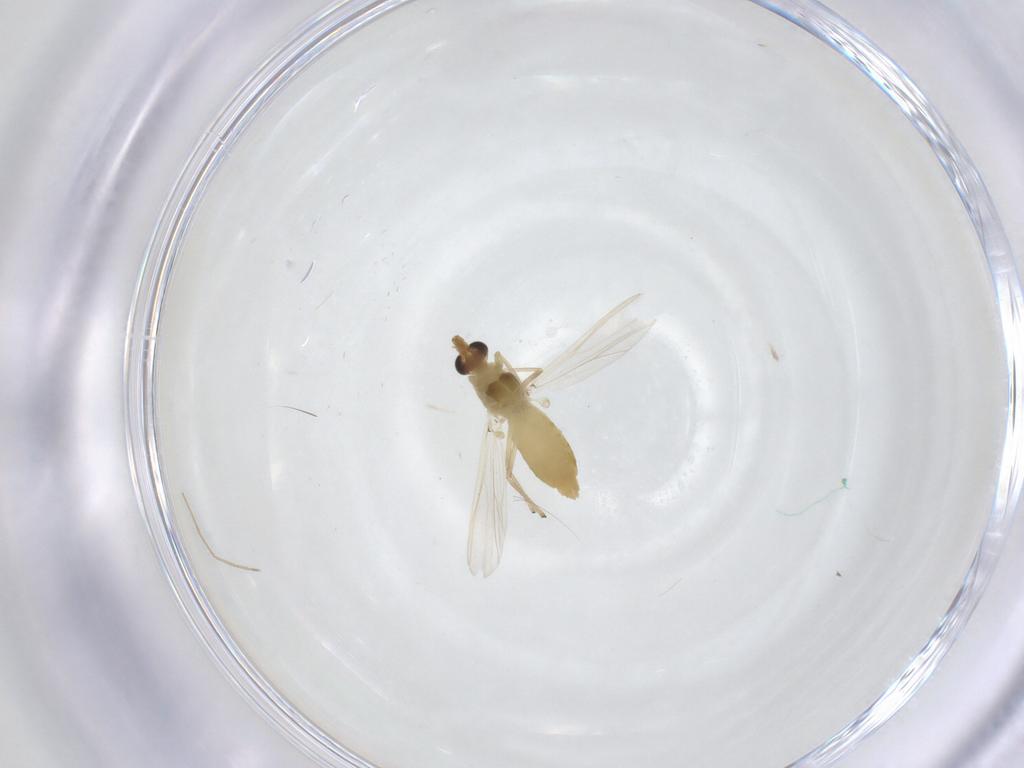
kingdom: Animalia
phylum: Arthropoda
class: Insecta
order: Diptera
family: Chironomidae
